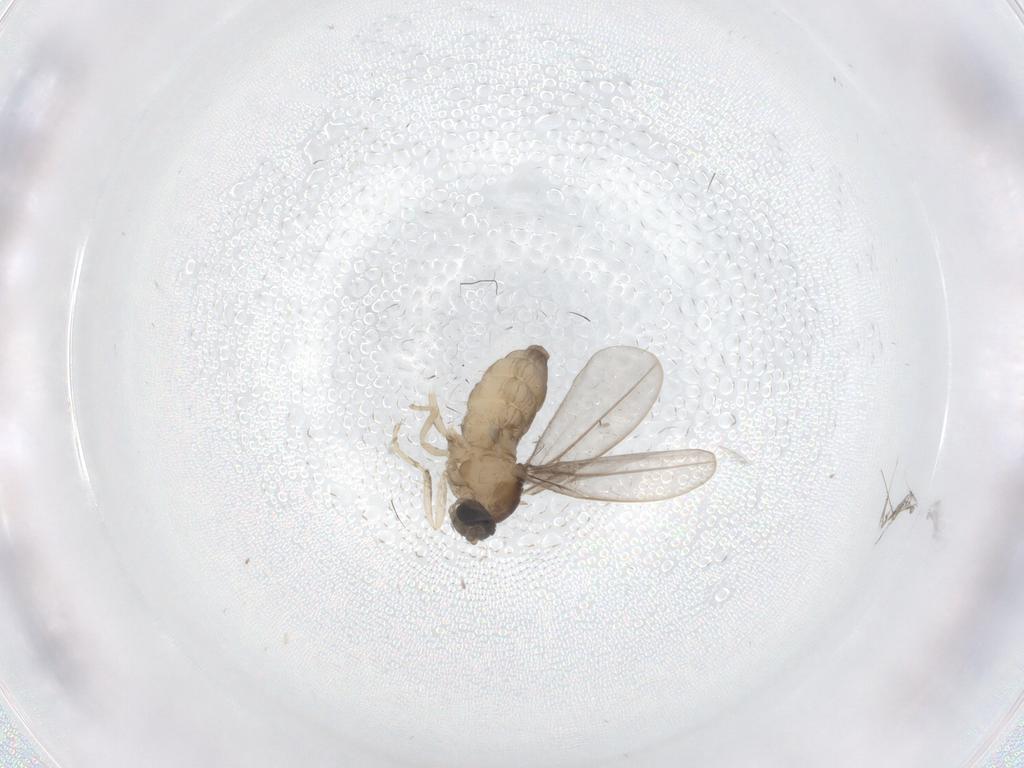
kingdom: Animalia
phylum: Arthropoda
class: Insecta
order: Diptera
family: Cecidomyiidae
